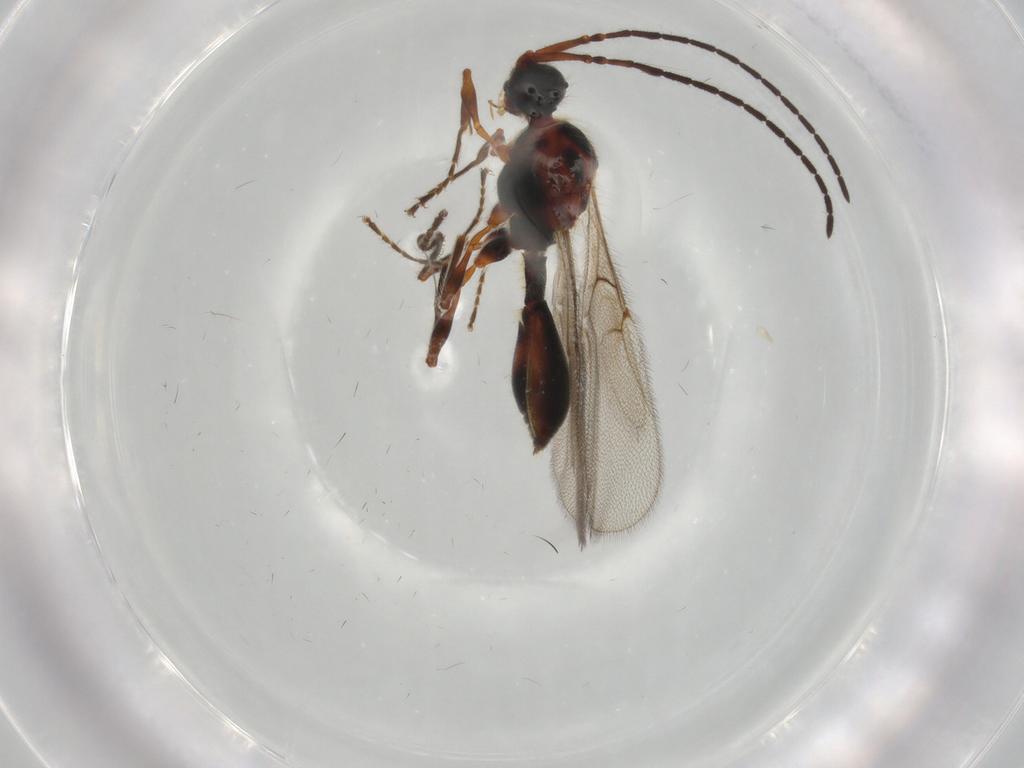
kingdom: Animalia
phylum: Arthropoda
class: Insecta
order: Hymenoptera
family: Diapriidae
